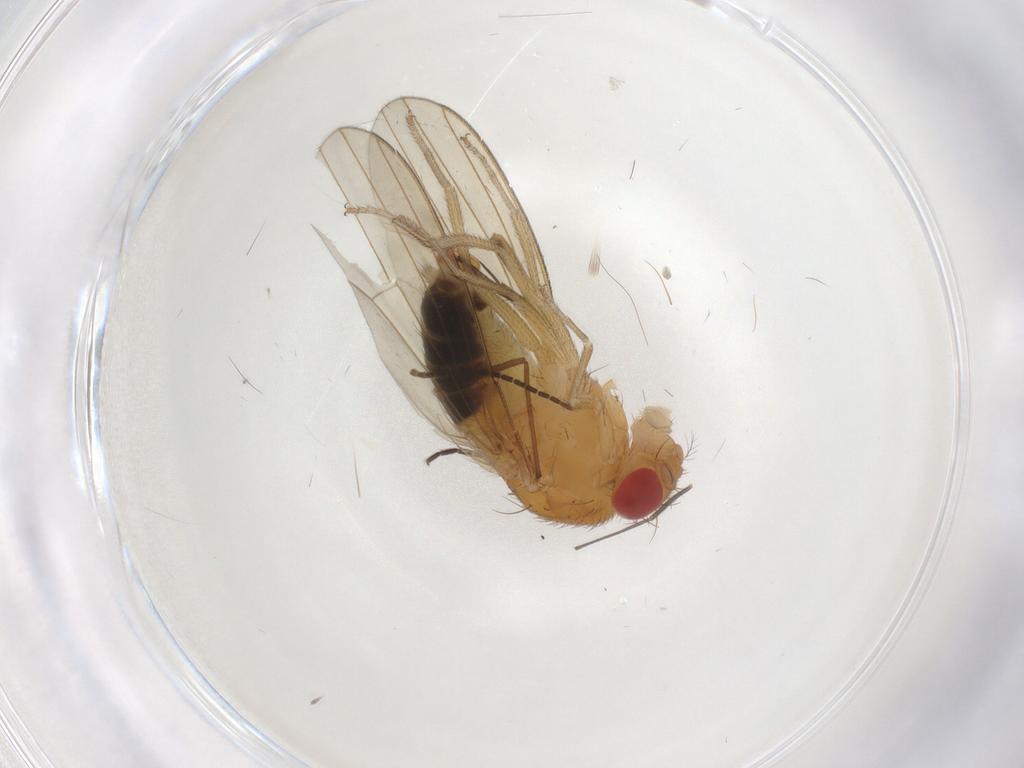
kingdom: Animalia
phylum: Arthropoda
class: Insecta
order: Diptera
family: Drosophilidae
